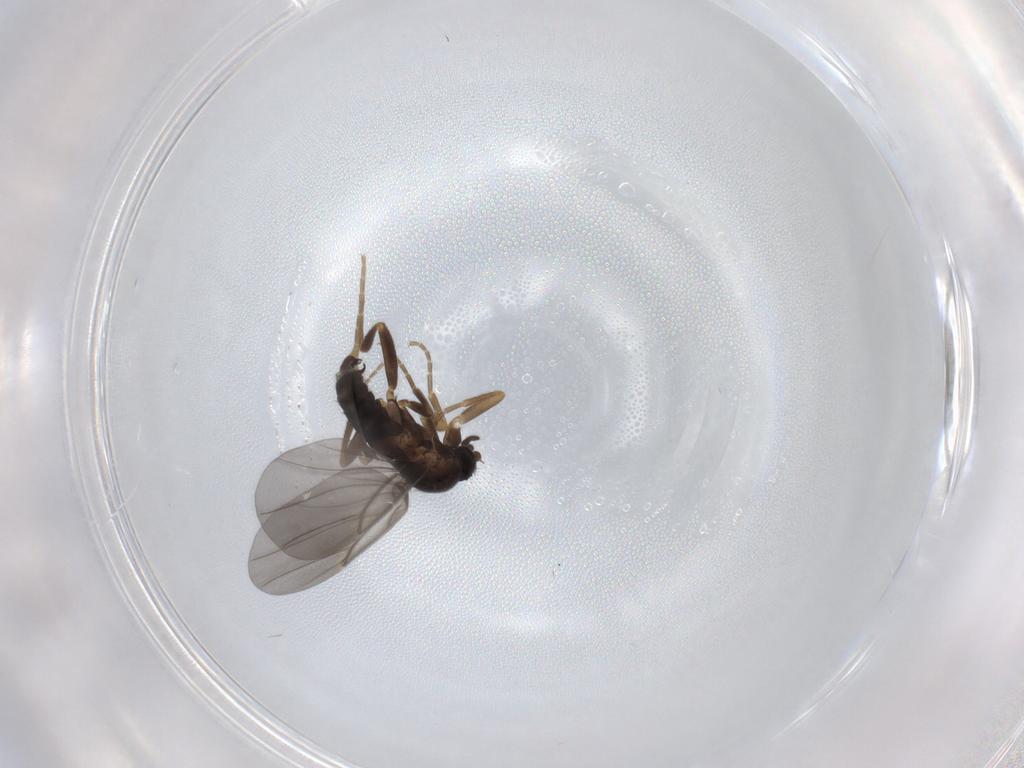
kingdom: Animalia
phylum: Arthropoda
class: Insecta
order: Diptera
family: Phoridae
